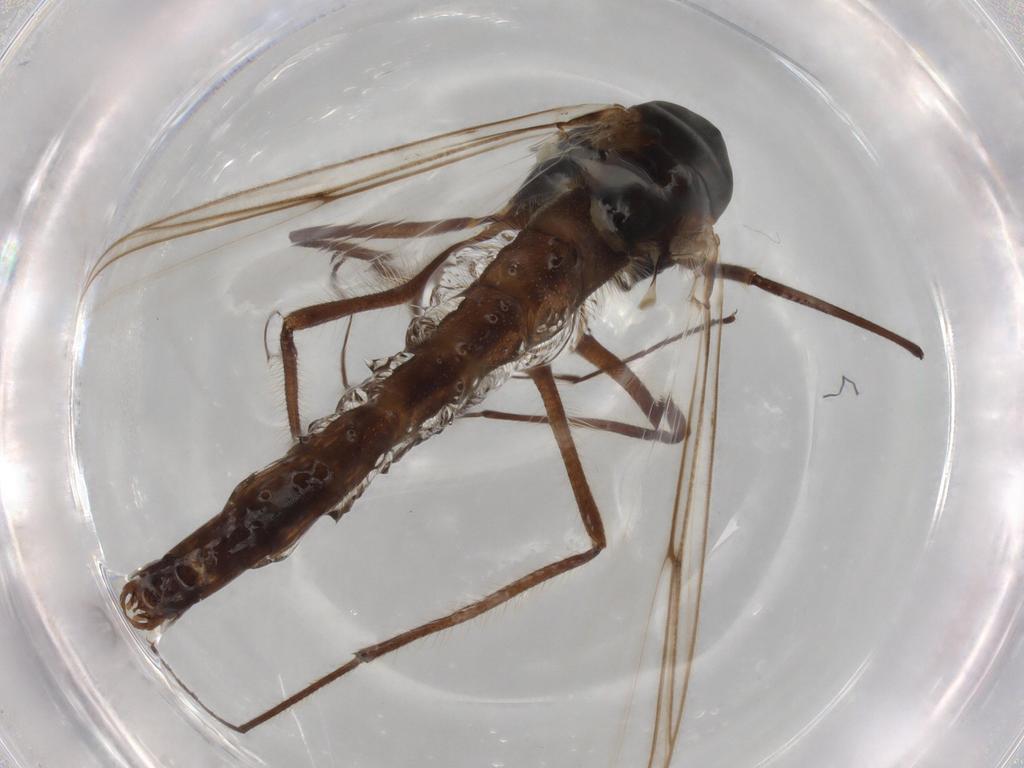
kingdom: Animalia
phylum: Arthropoda
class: Insecta
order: Diptera
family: Chironomidae
